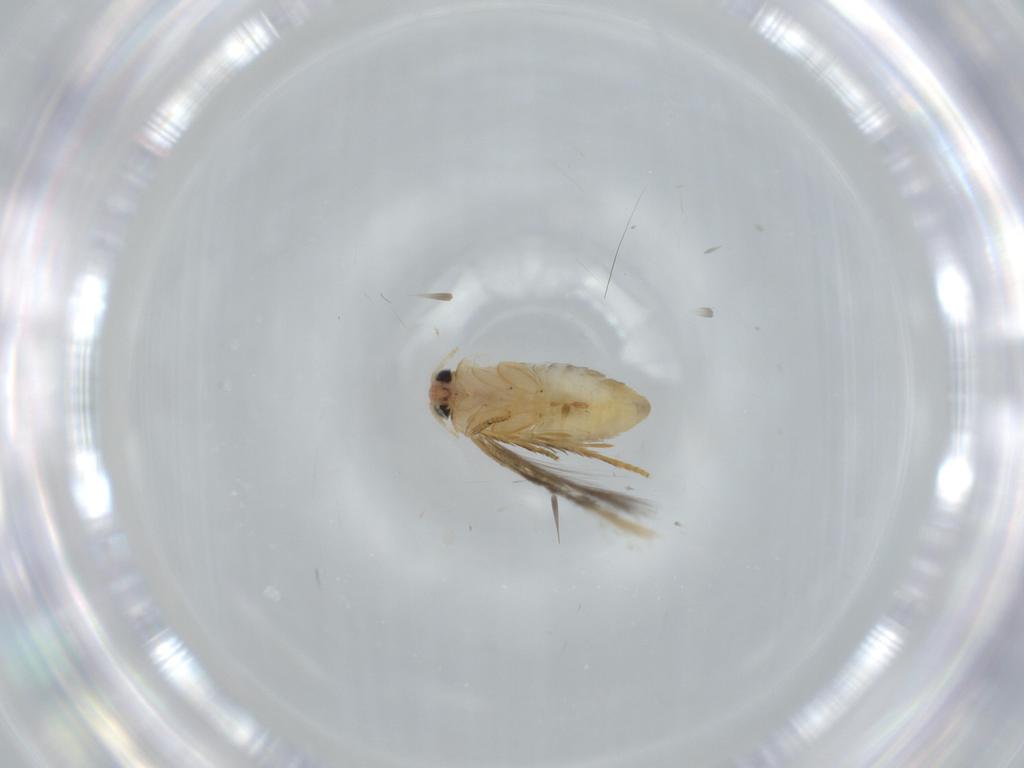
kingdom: Animalia
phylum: Arthropoda
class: Insecta
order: Lepidoptera
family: Nepticulidae
